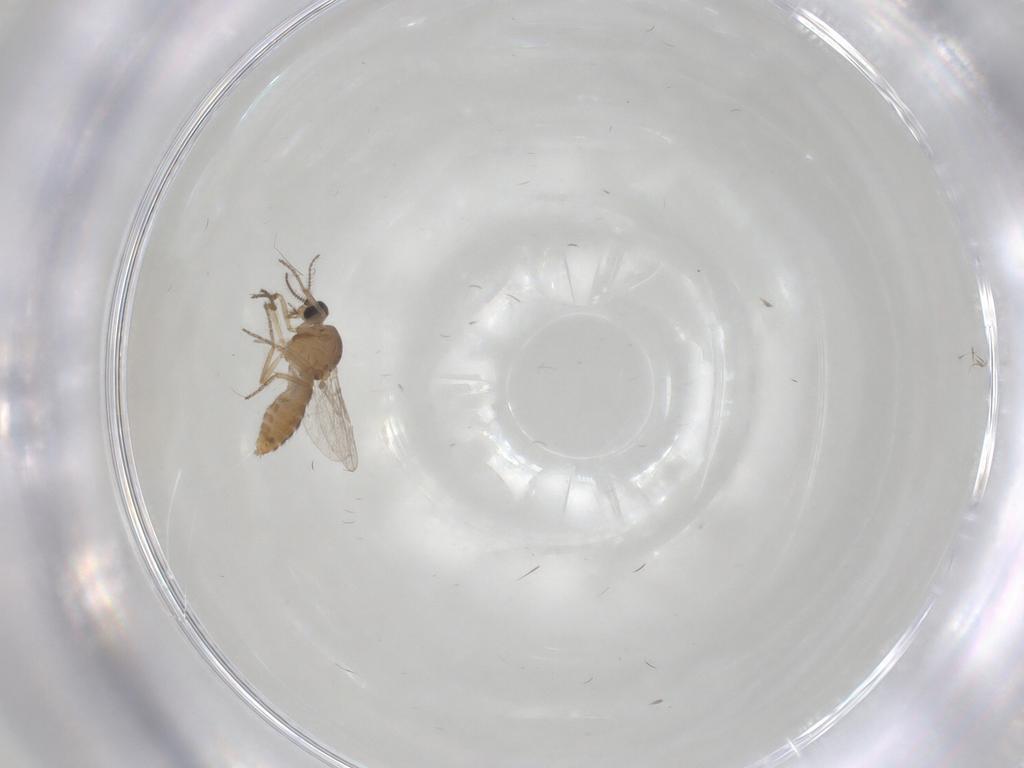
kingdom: Animalia
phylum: Arthropoda
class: Insecta
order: Diptera
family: Ceratopogonidae
